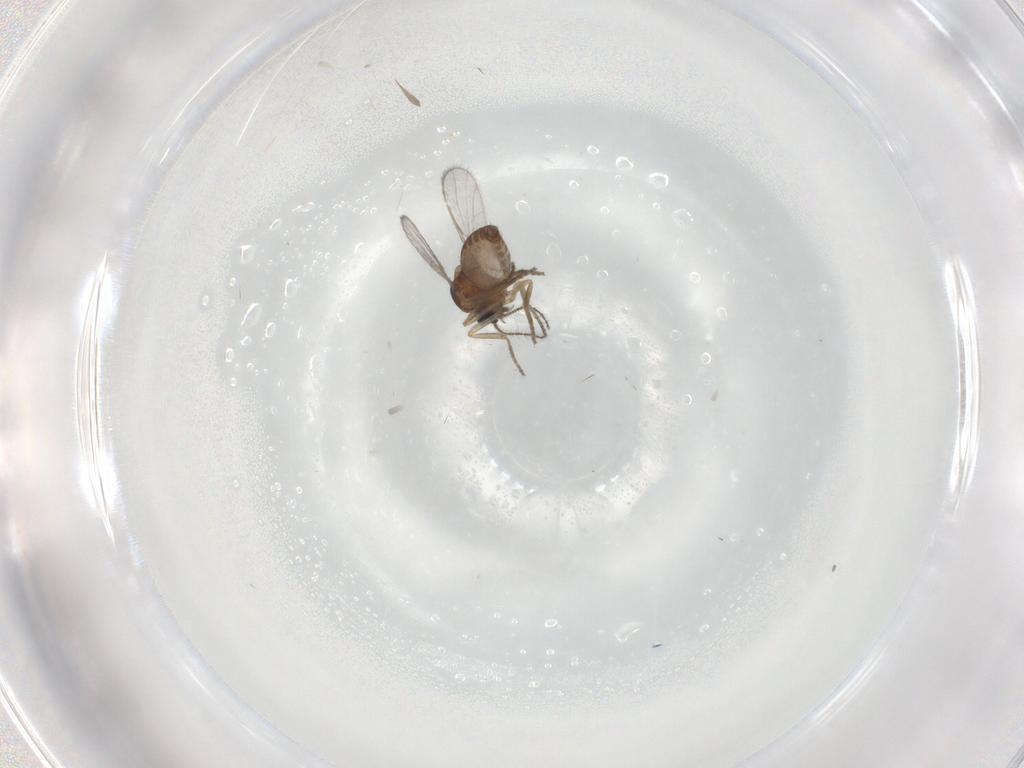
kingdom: Animalia
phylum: Arthropoda
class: Insecta
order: Diptera
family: Ceratopogonidae
